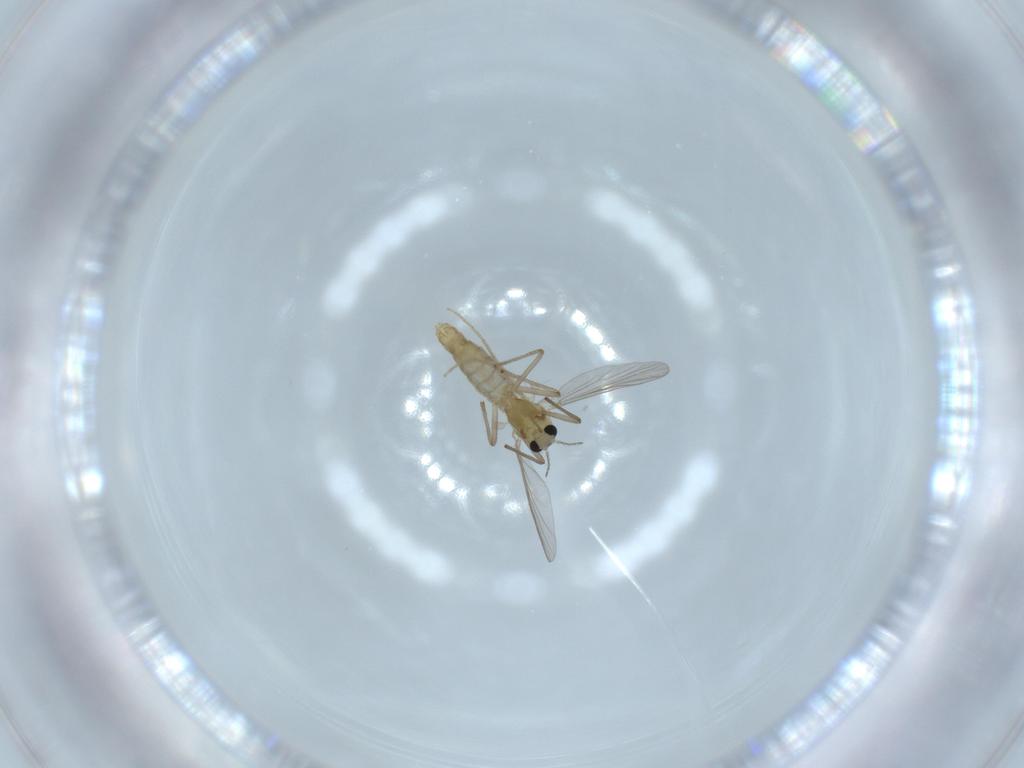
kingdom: Animalia
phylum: Arthropoda
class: Insecta
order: Diptera
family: Chironomidae
